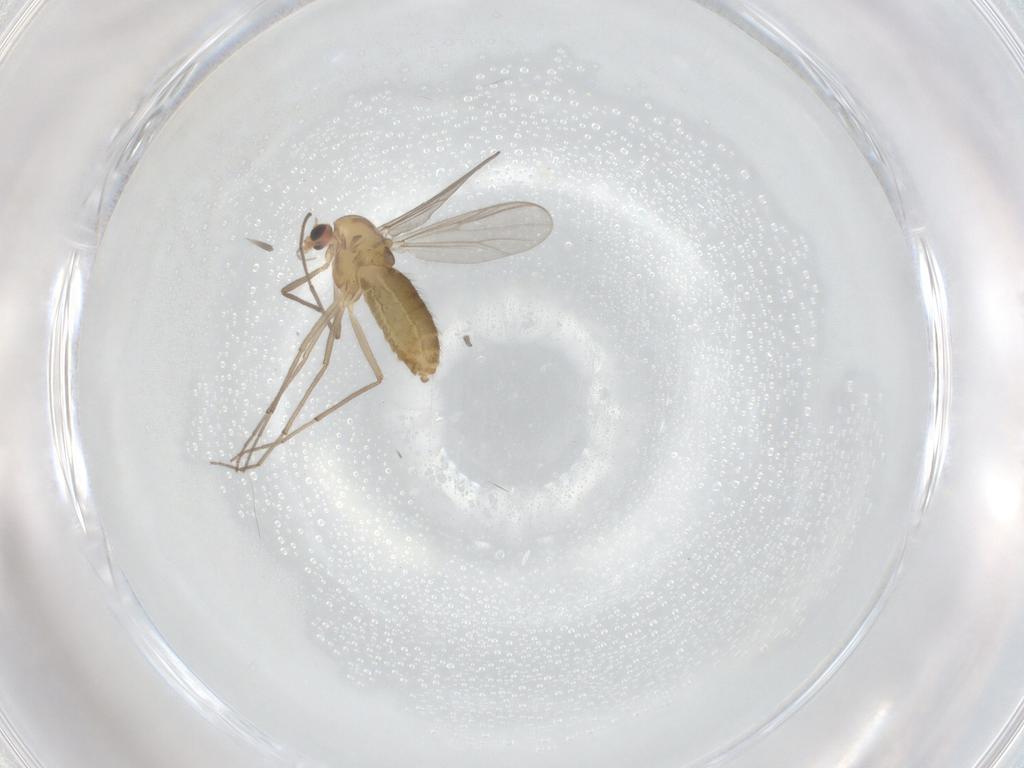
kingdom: Animalia
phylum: Arthropoda
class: Insecta
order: Diptera
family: Chironomidae
